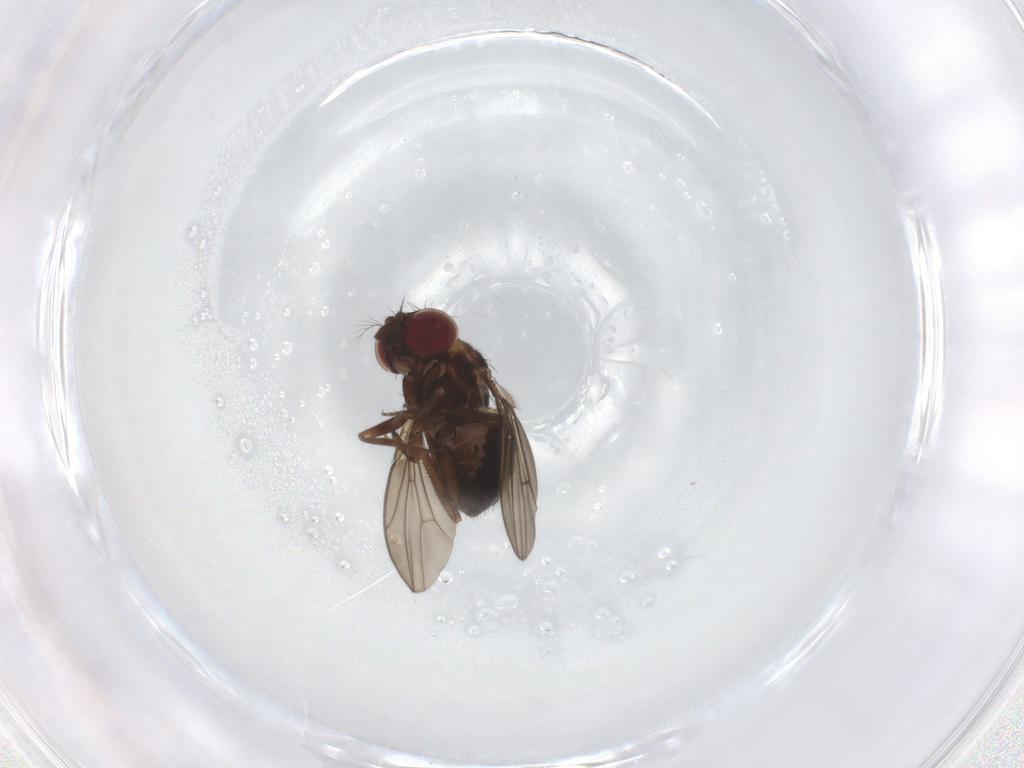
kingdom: Animalia
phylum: Arthropoda
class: Insecta
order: Diptera
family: Drosophilidae
